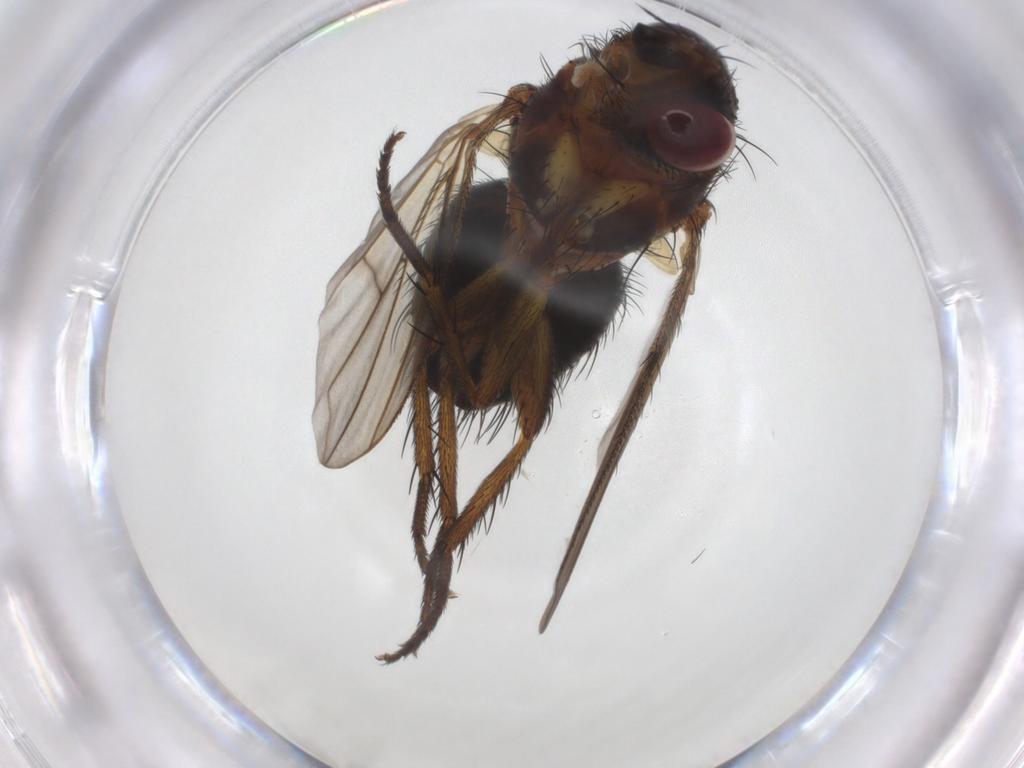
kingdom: Animalia
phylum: Arthropoda
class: Insecta
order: Diptera
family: Tachinidae
